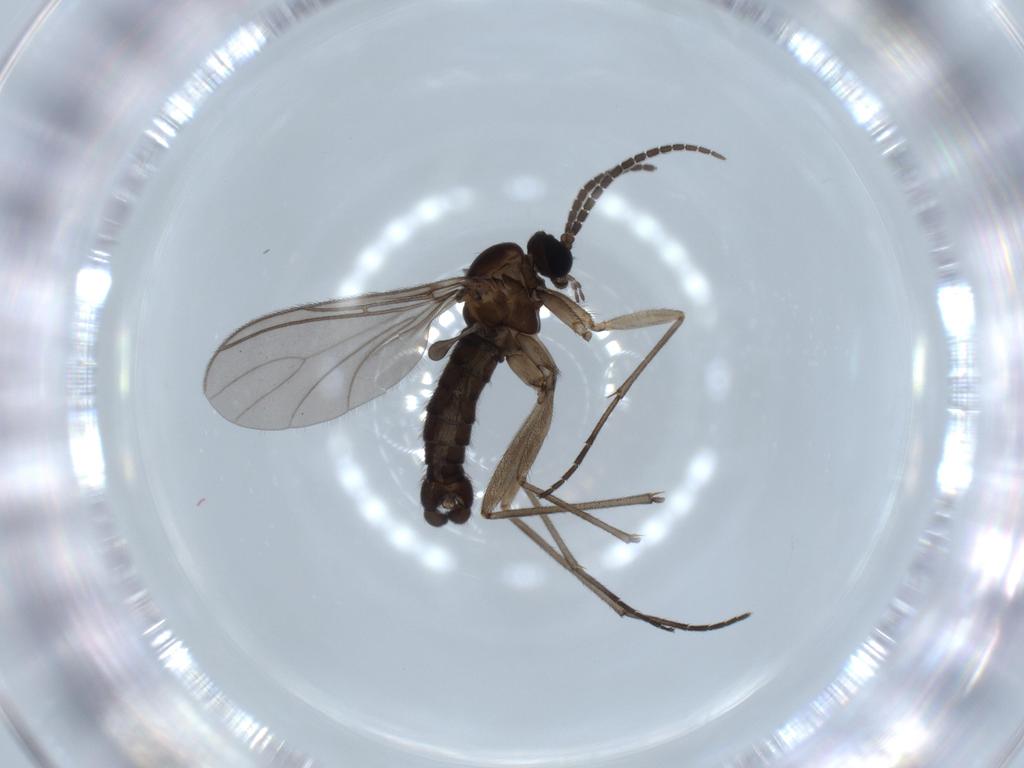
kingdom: Animalia
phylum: Arthropoda
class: Insecta
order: Diptera
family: Sciaridae
